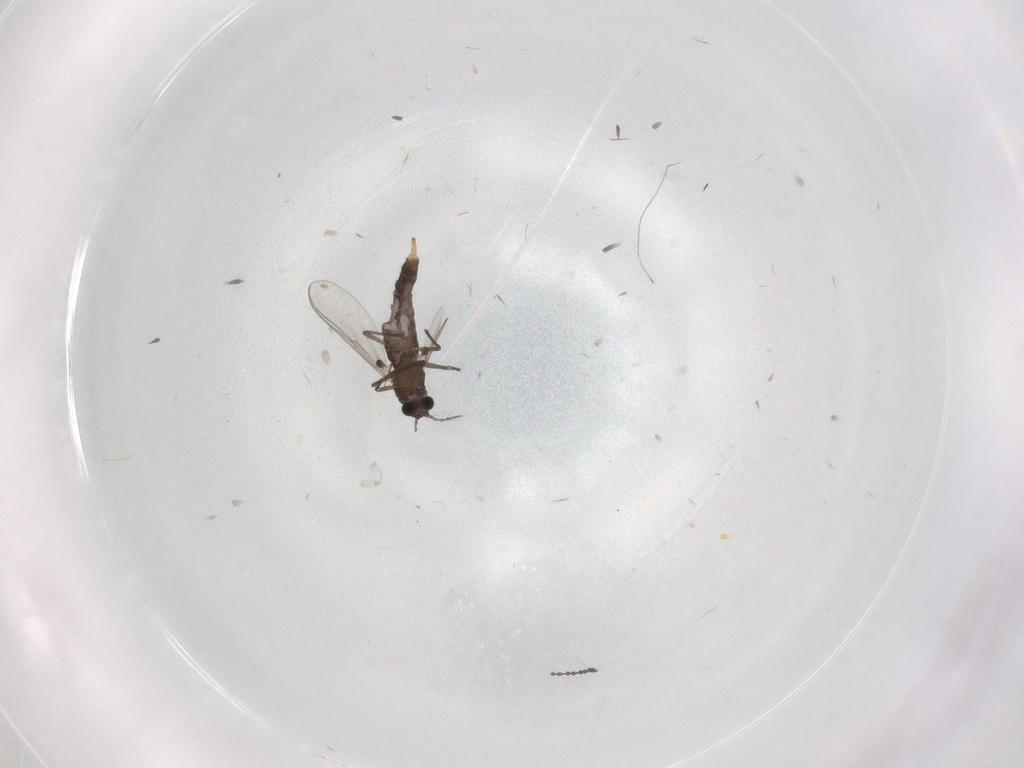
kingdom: Animalia
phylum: Arthropoda
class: Insecta
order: Diptera
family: Chironomidae
